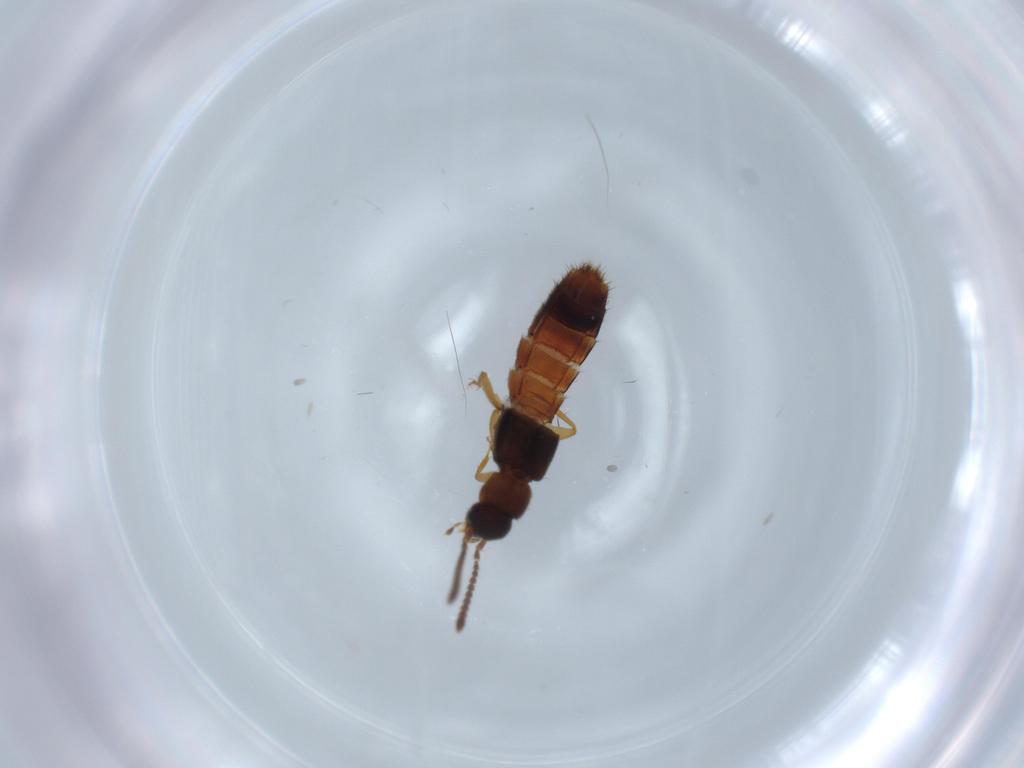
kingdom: Animalia
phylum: Arthropoda
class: Insecta
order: Coleoptera
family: Staphylinidae
